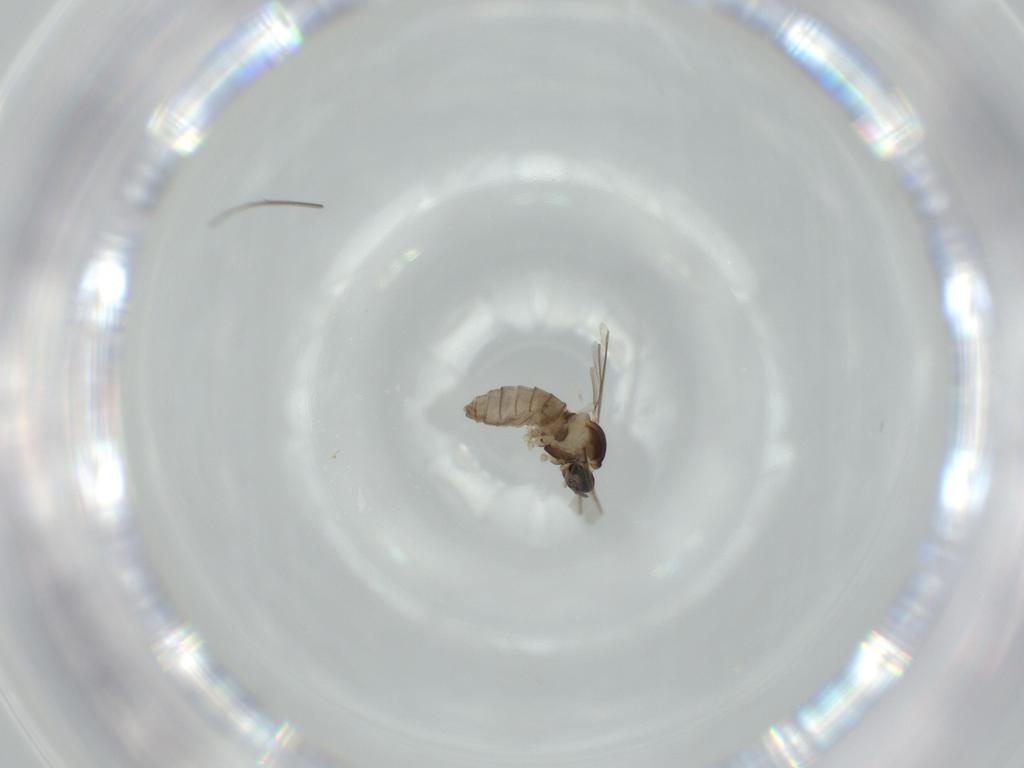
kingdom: Animalia
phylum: Arthropoda
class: Insecta
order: Diptera
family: Cecidomyiidae
